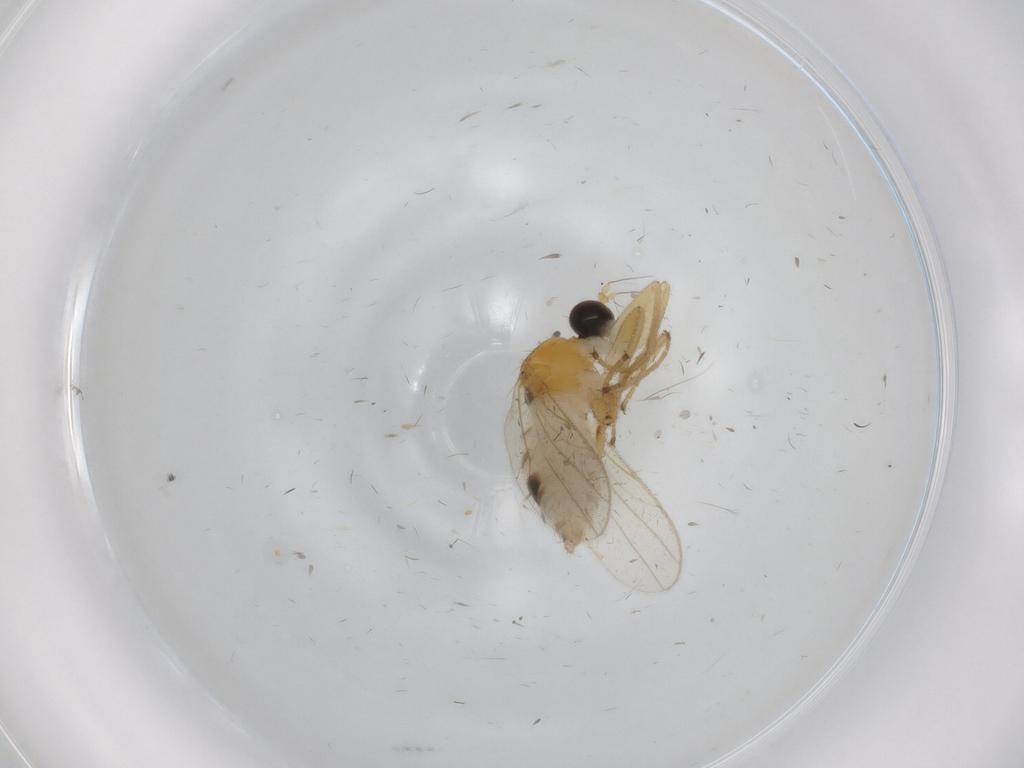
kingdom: Animalia
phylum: Arthropoda
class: Insecta
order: Diptera
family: Hybotidae
